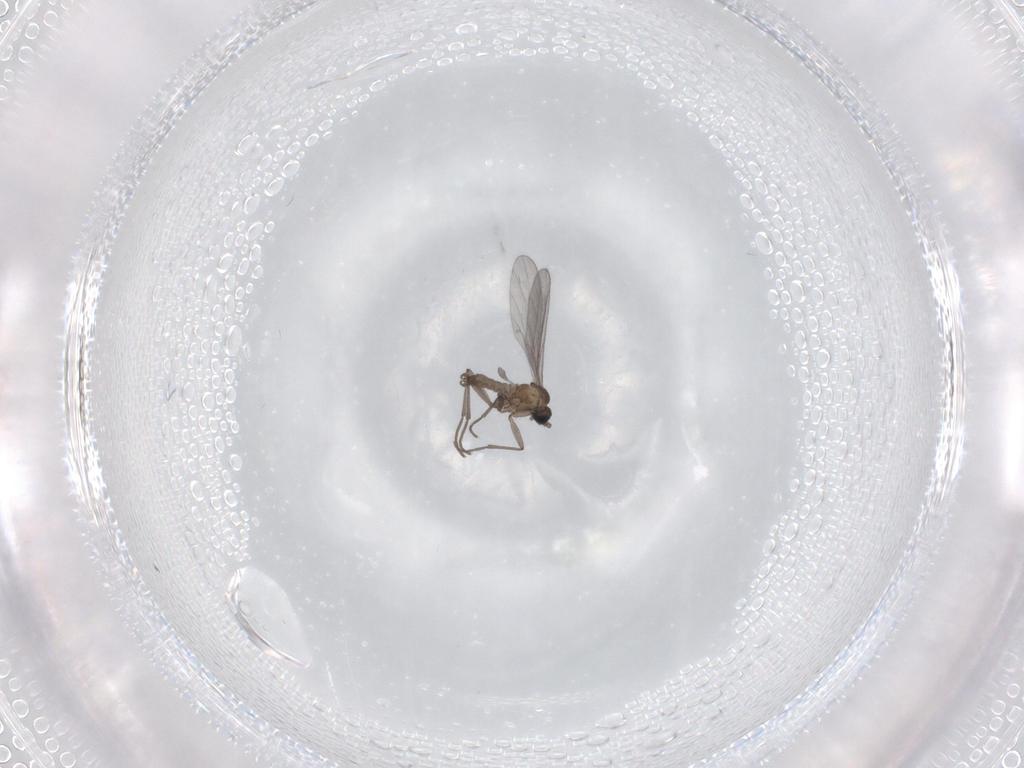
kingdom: Animalia
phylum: Arthropoda
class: Insecta
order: Diptera
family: Sciaridae
